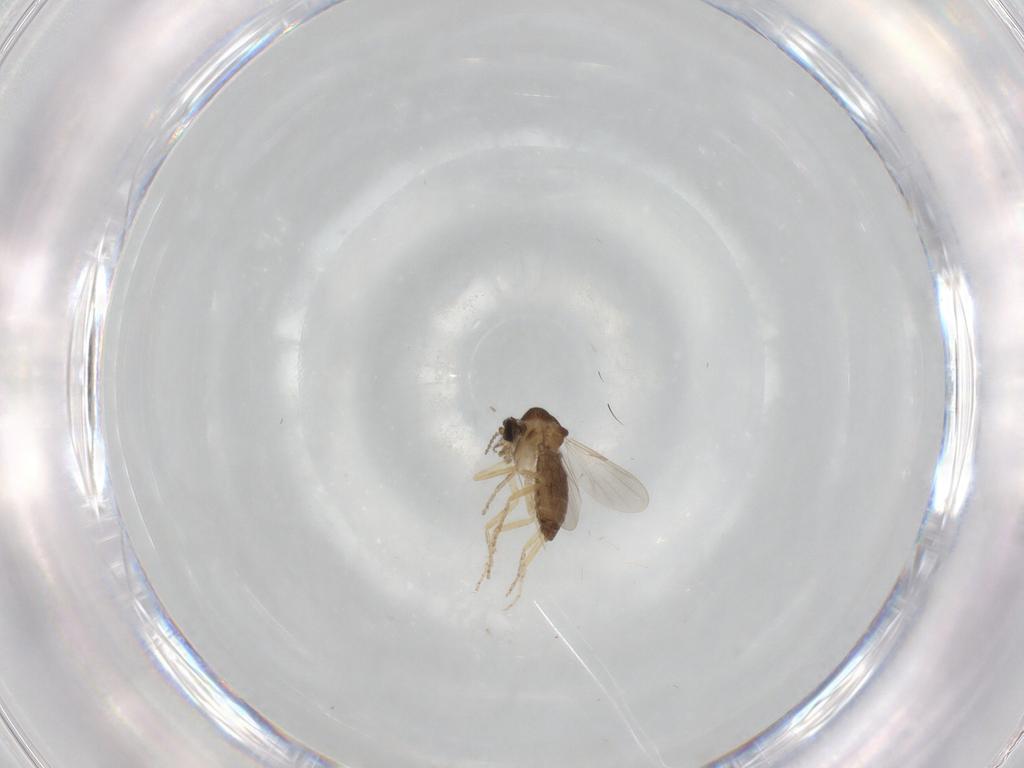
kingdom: Animalia
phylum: Arthropoda
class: Insecta
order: Diptera
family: Ceratopogonidae
